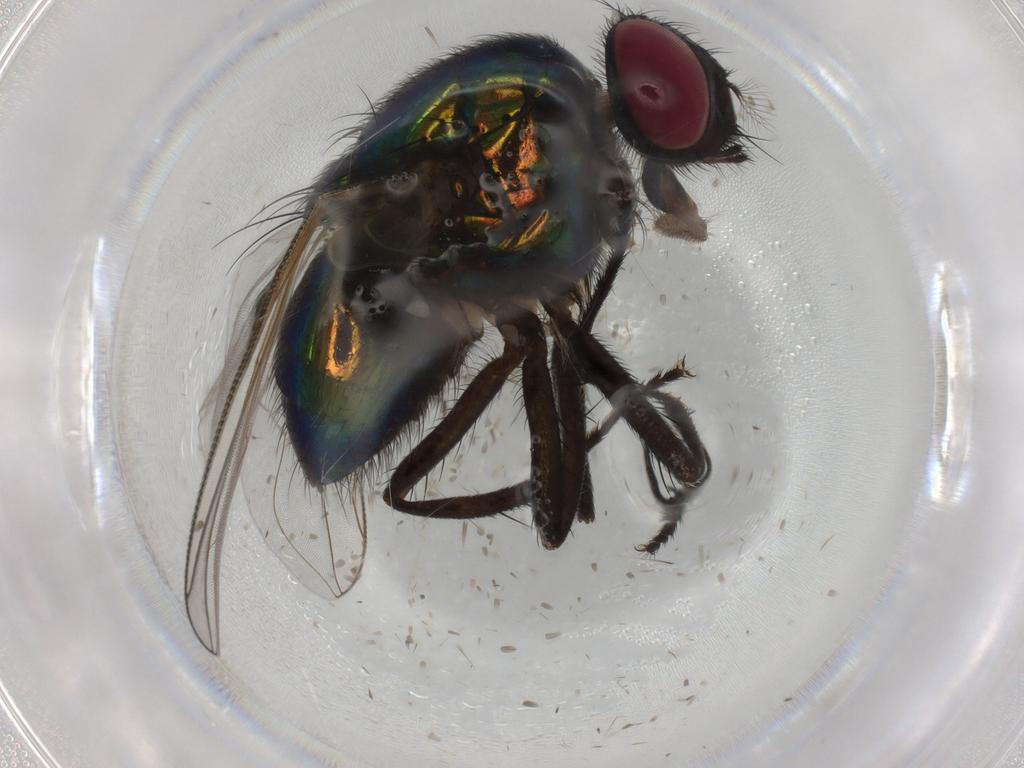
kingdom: Animalia
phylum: Arthropoda
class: Insecta
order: Diptera
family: Muscidae
